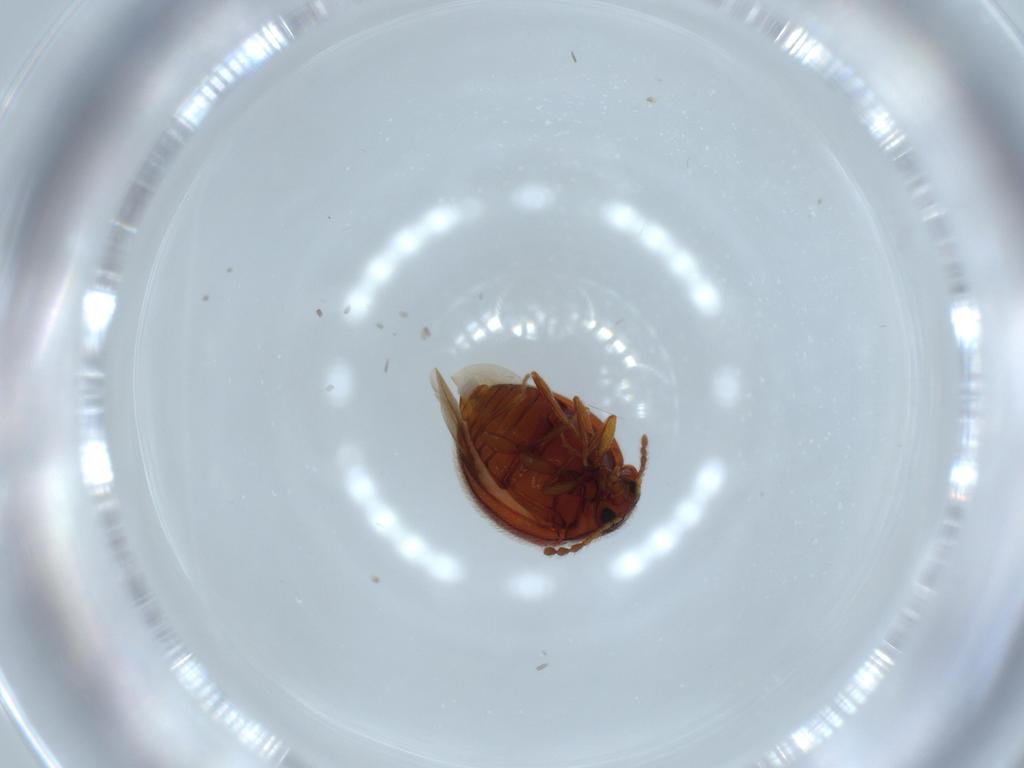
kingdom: Animalia
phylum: Arthropoda
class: Insecta
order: Coleoptera
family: Anamorphidae
